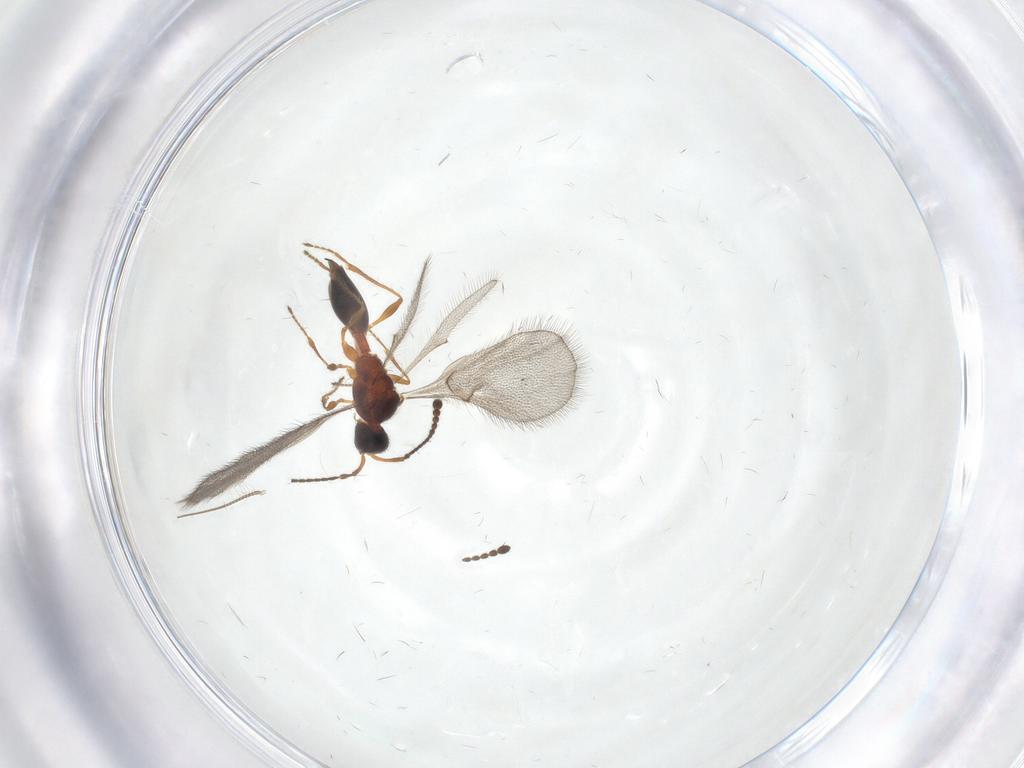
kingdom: Animalia
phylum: Arthropoda
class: Insecta
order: Hymenoptera
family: Diapriidae
